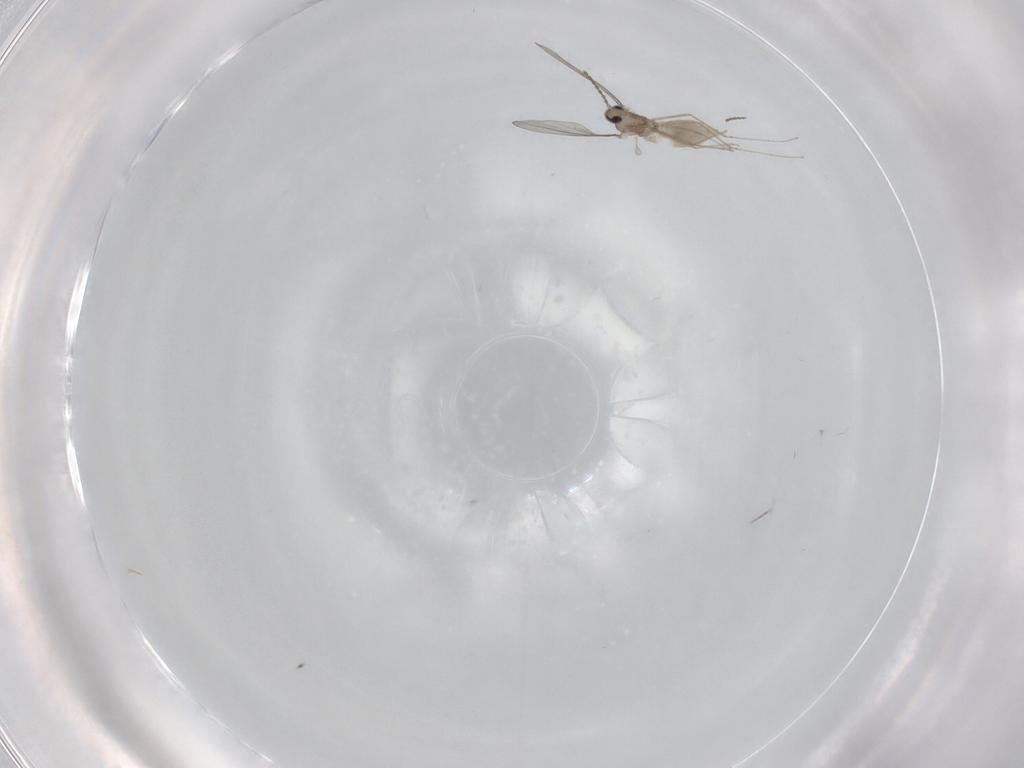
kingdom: Animalia
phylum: Arthropoda
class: Insecta
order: Diptera
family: Cecidomyiidae
